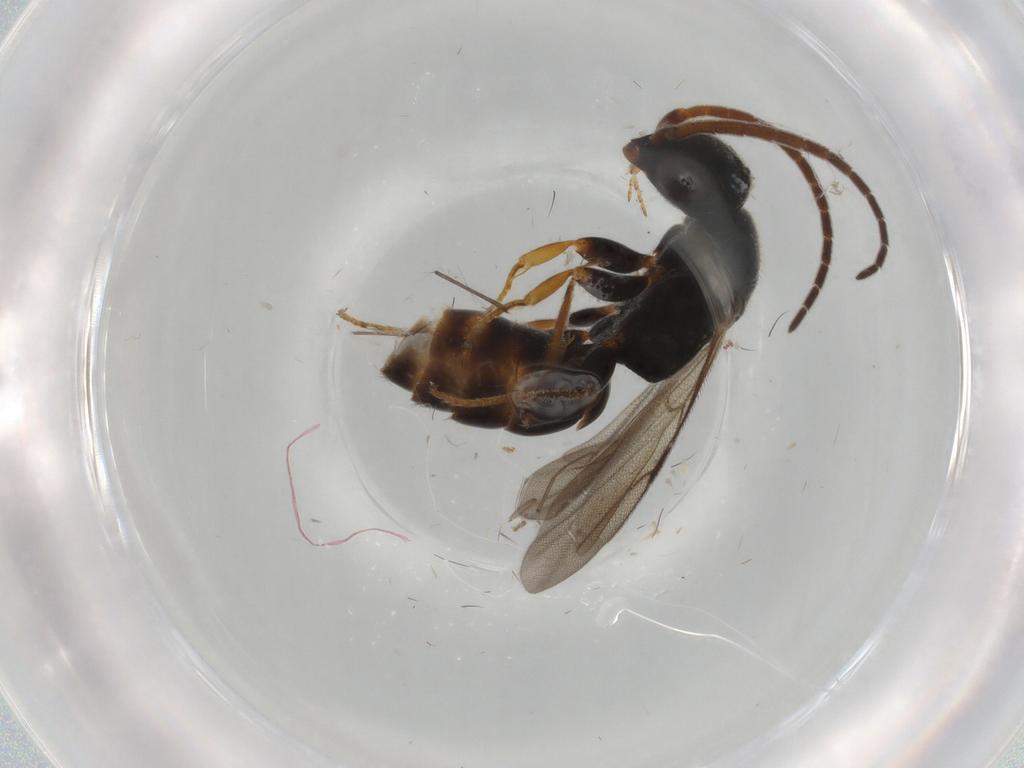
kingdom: Animalia
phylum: Arthropoda
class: Insecta
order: Hymenoptera
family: Bethylidae
